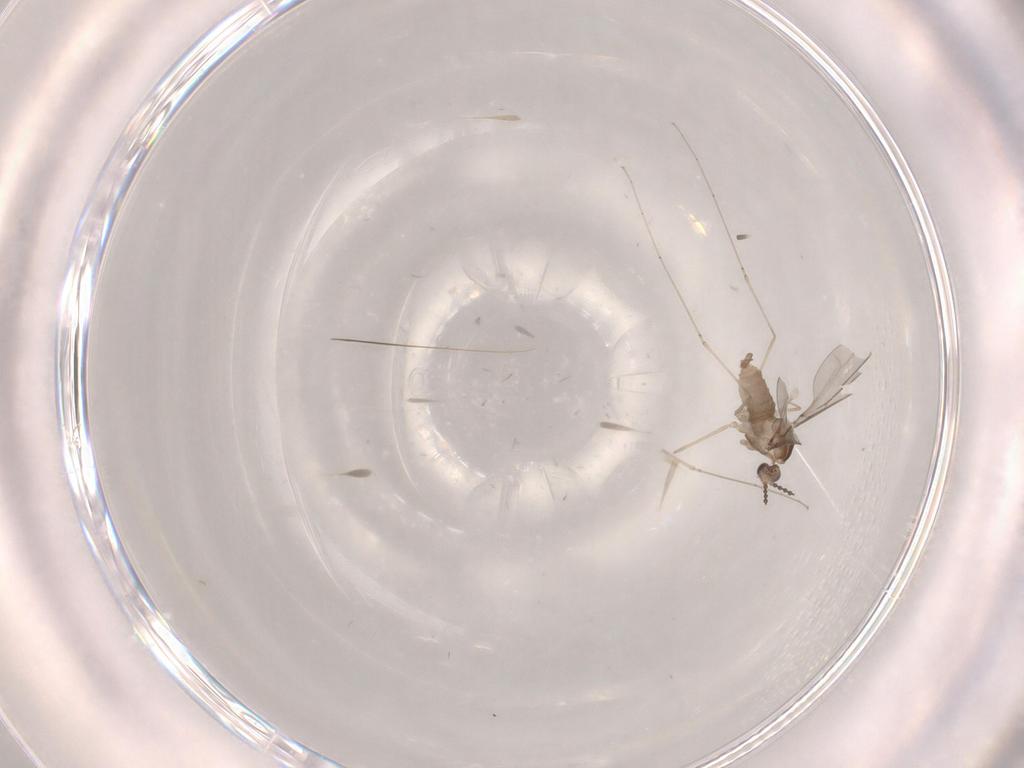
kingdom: Animalia
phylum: Arthropoda
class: Insecta
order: Diptera
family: Cecidomyiidae
